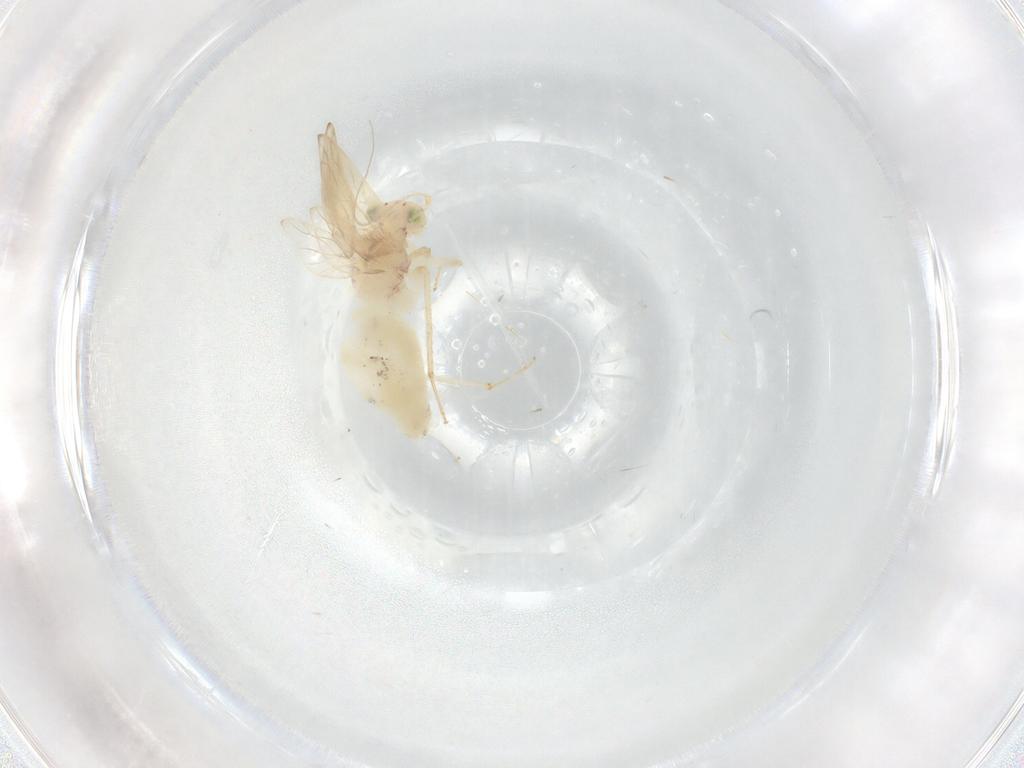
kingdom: Animalia
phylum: Arthropoda
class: Insecta
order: Psocodea
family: Lepidopsocidae
